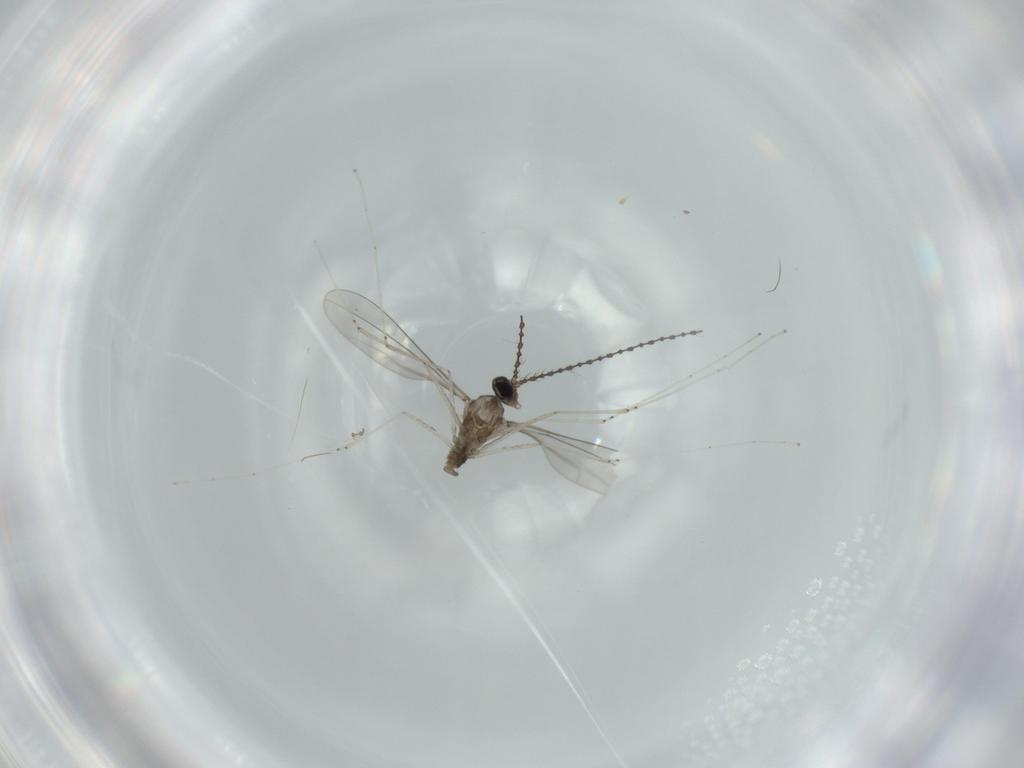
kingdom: Animalia
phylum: Arthropoda
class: Insecta
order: Diptera
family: Cecidomyiidae
